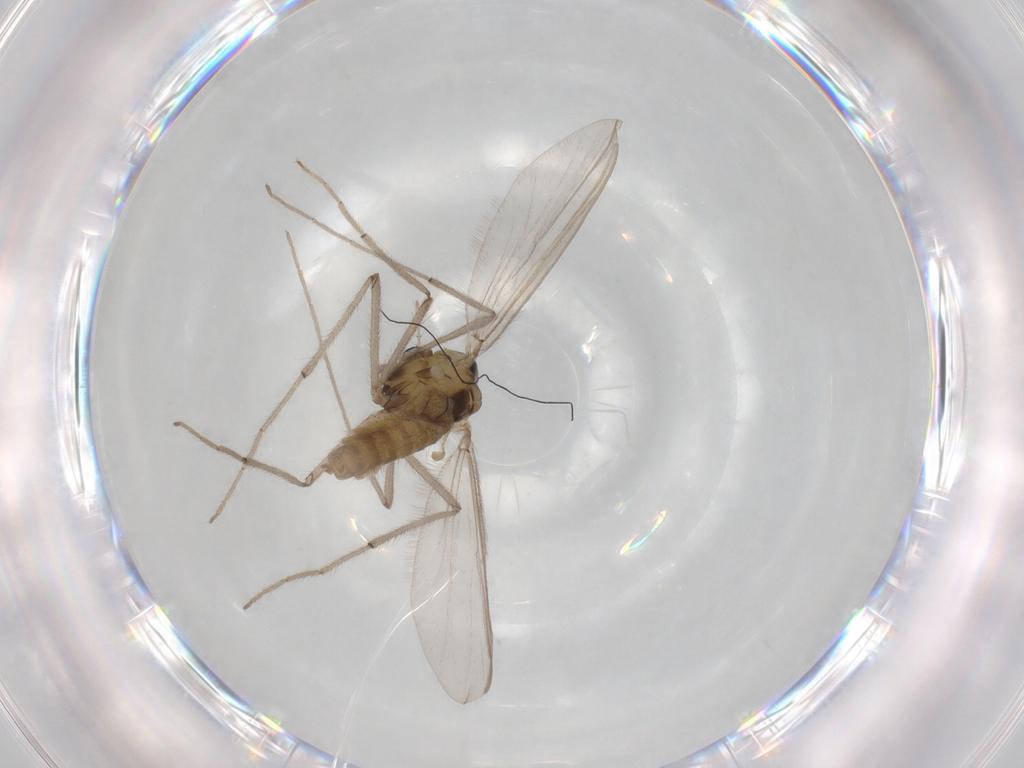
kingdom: Animalia
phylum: Arthropoda
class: Insecta
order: Diptera
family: Chironomidae
